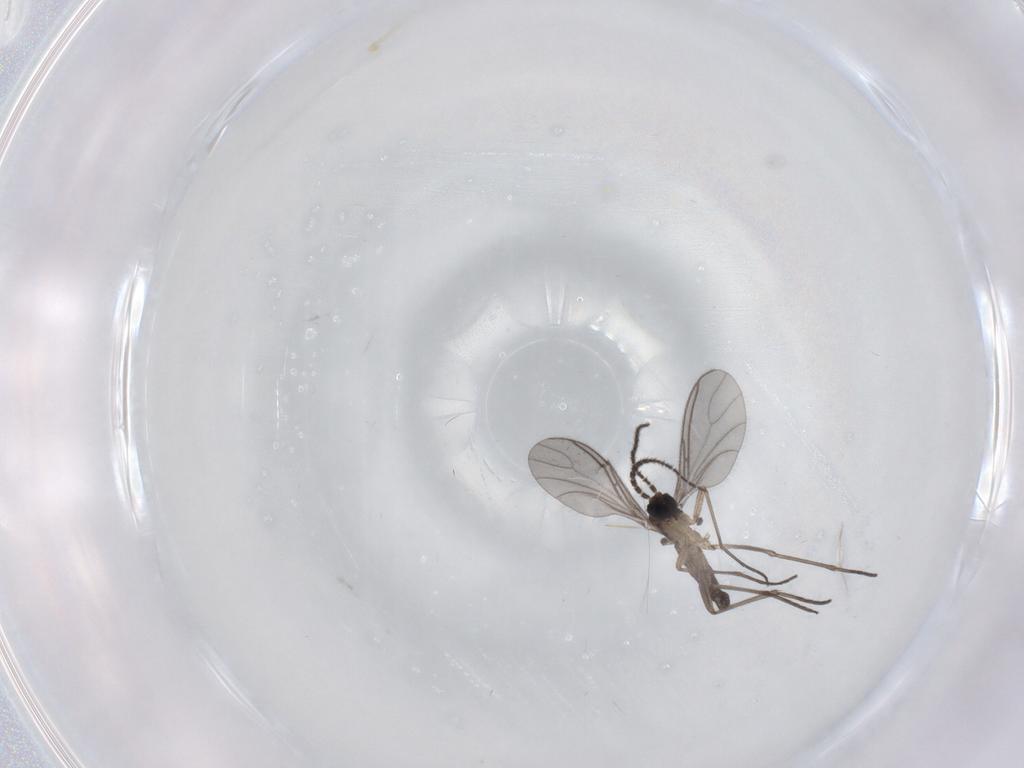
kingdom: Animalia
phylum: Arthropoda
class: Insecta
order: Diptera
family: Sciaridae
